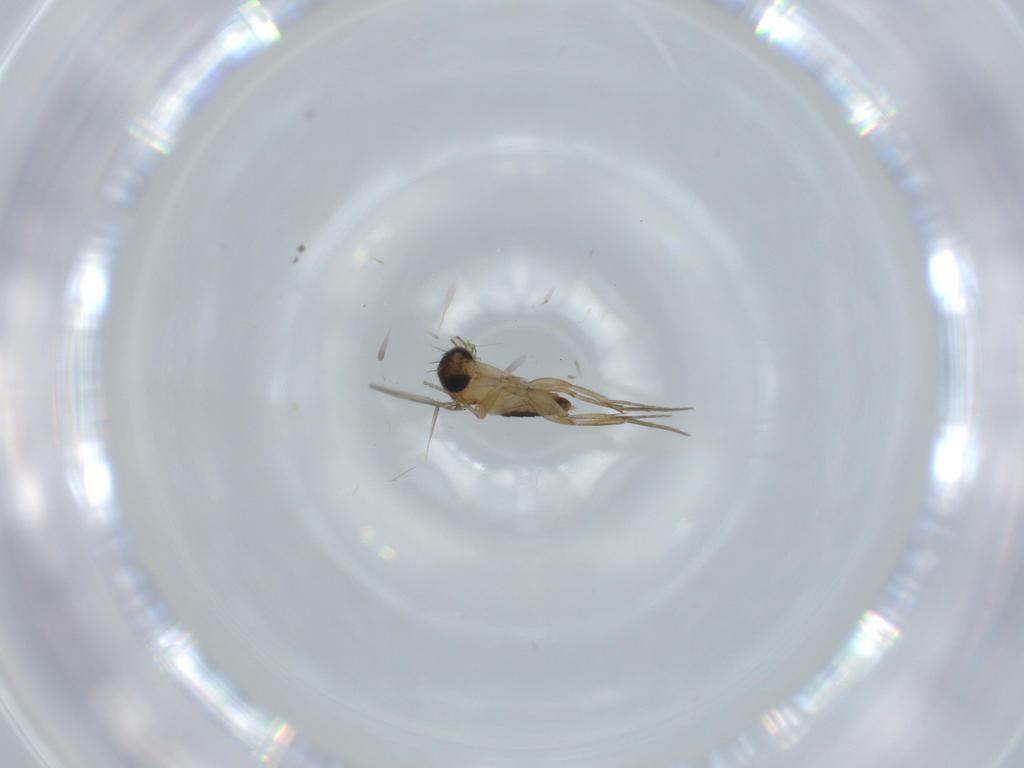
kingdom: Animalia
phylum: Arthropoda
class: Insecta
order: Diptera
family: Phoridae
